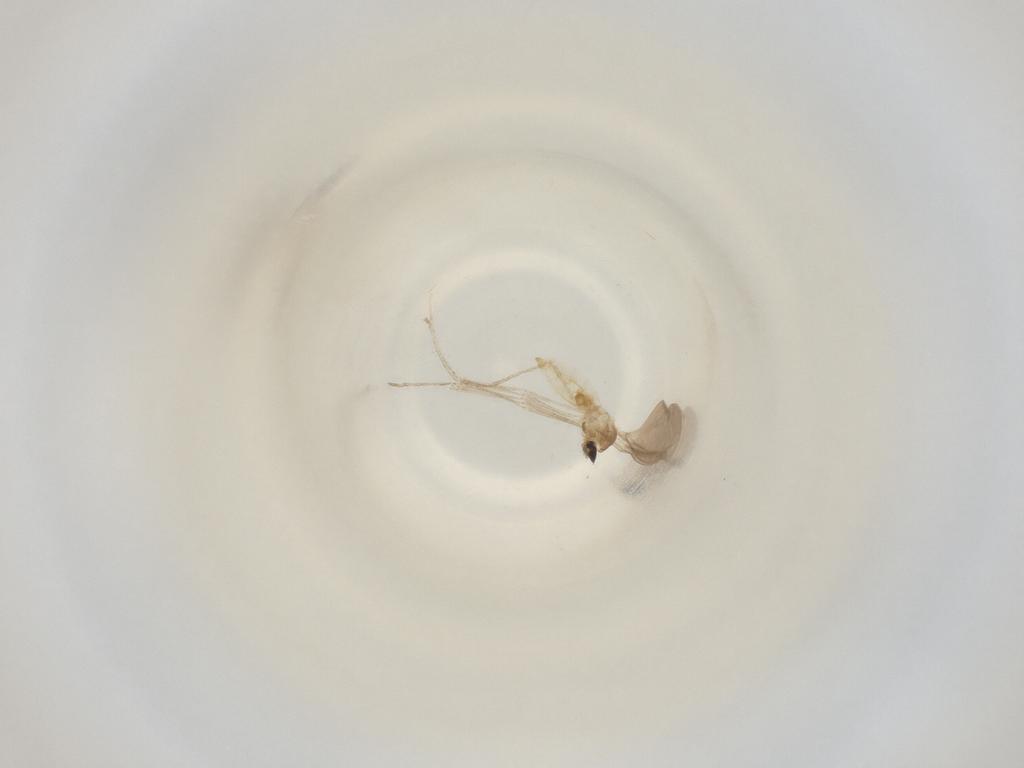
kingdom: Animalia
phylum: Arthropoda
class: Insecta
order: Diptera
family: Cecidomyiidae
